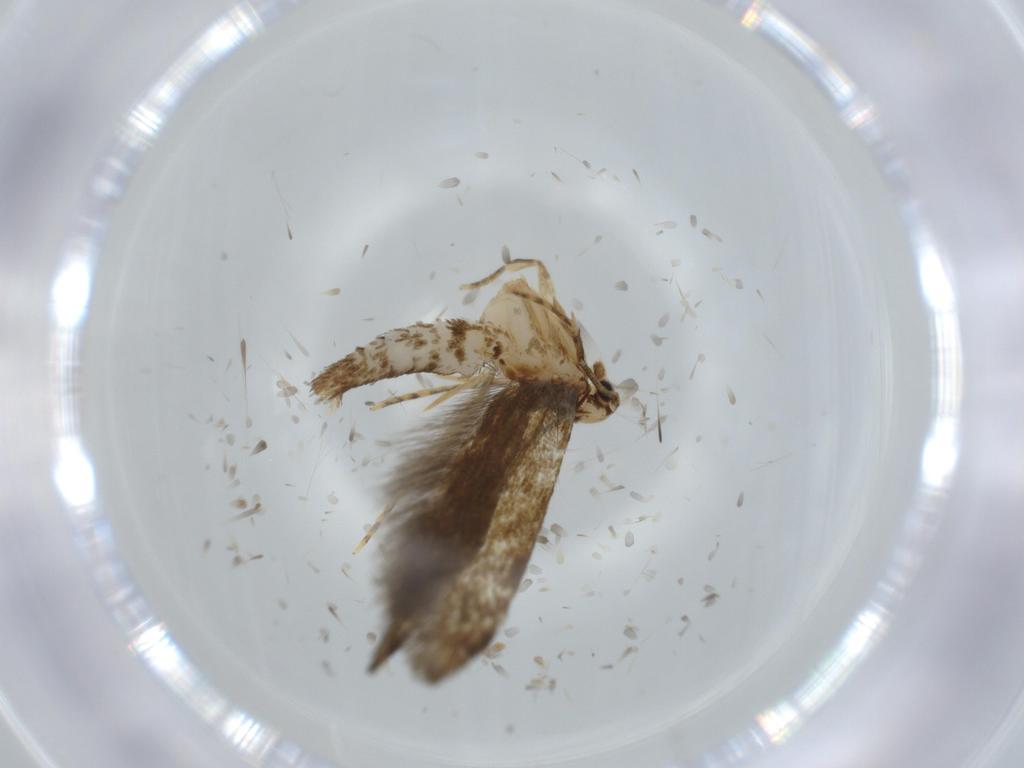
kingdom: Animalia
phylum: Arthropoda
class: Insecta
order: Lepidoptera
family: Tineidae
